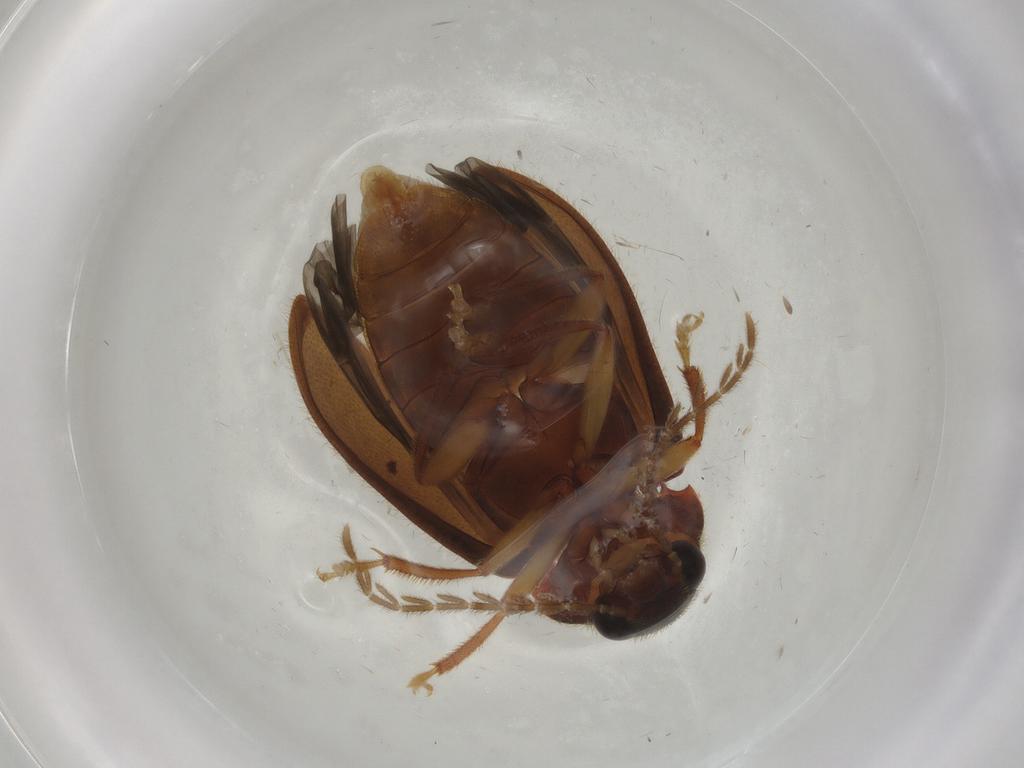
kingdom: Animalia
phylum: Arthropoda
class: Insecta
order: Coleoptera
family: Ptilodactylidae
